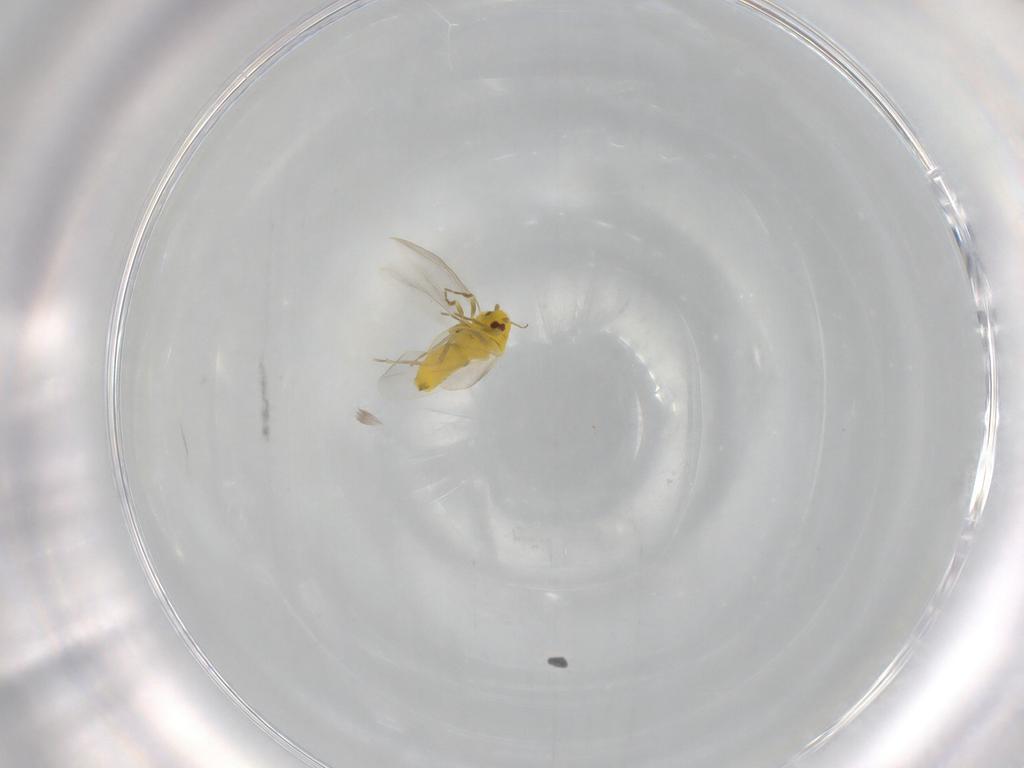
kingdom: Animalia
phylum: Arthropoda
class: Insecta
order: Hemiptera
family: Aleyrodidae
